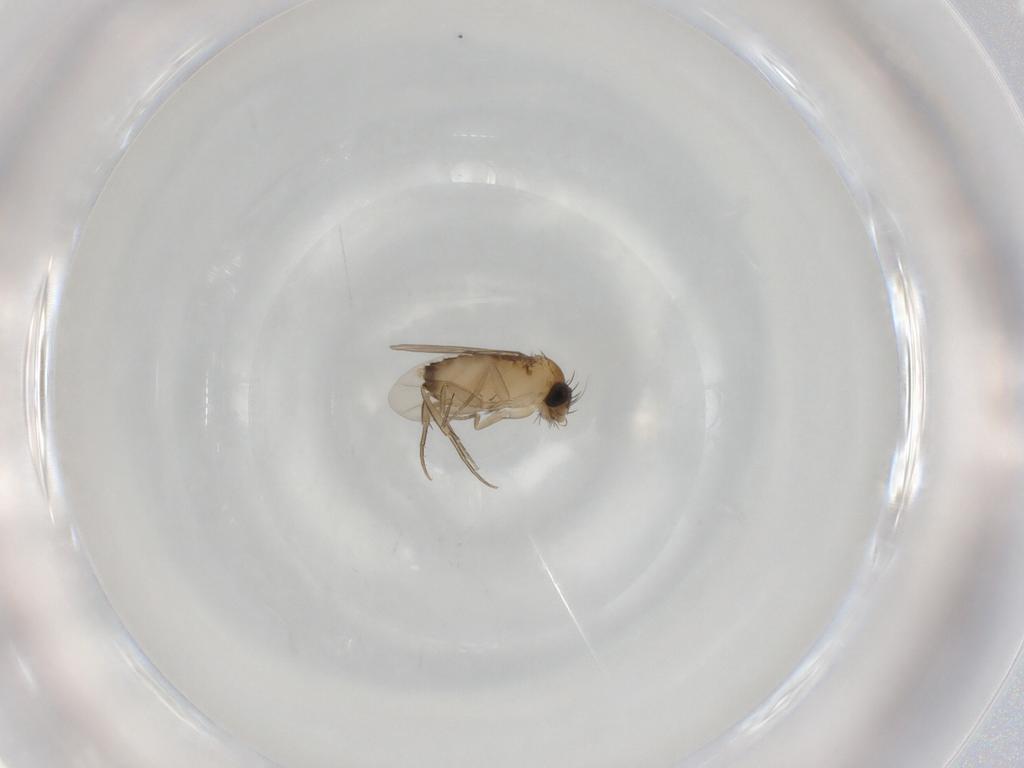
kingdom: Animalia
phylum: Arthropoda
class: Insecta
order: Diptera
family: Phoridae
